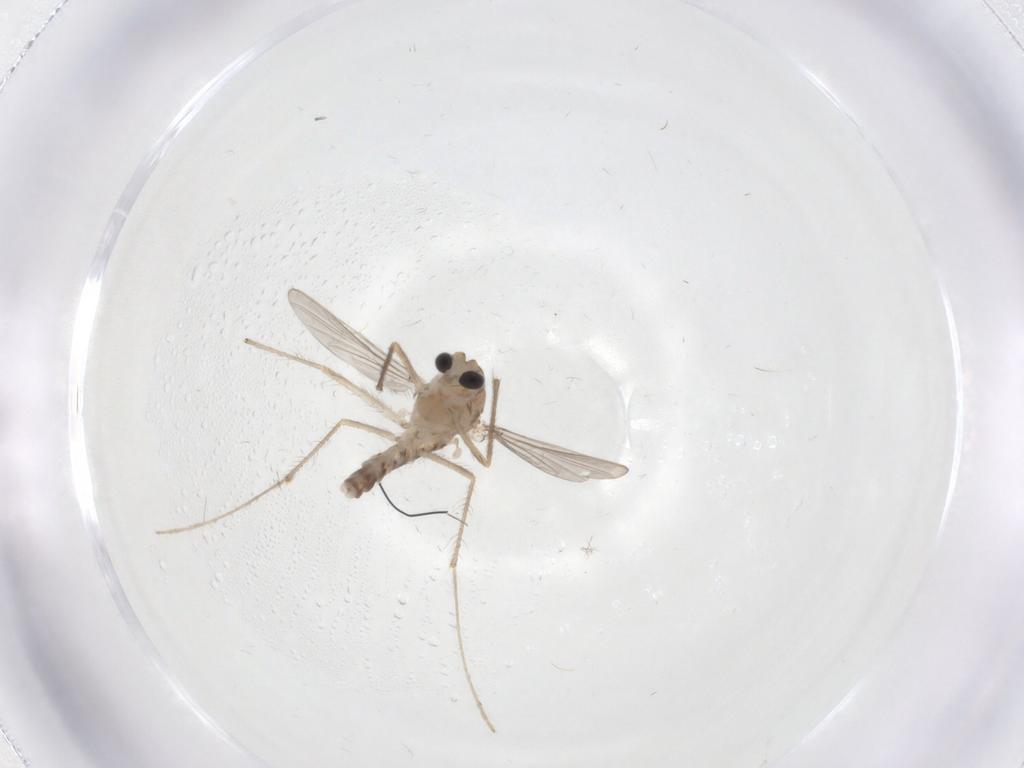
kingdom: Animalia
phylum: Arthropoda
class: Insecta
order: Diptera
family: Chironomidae
